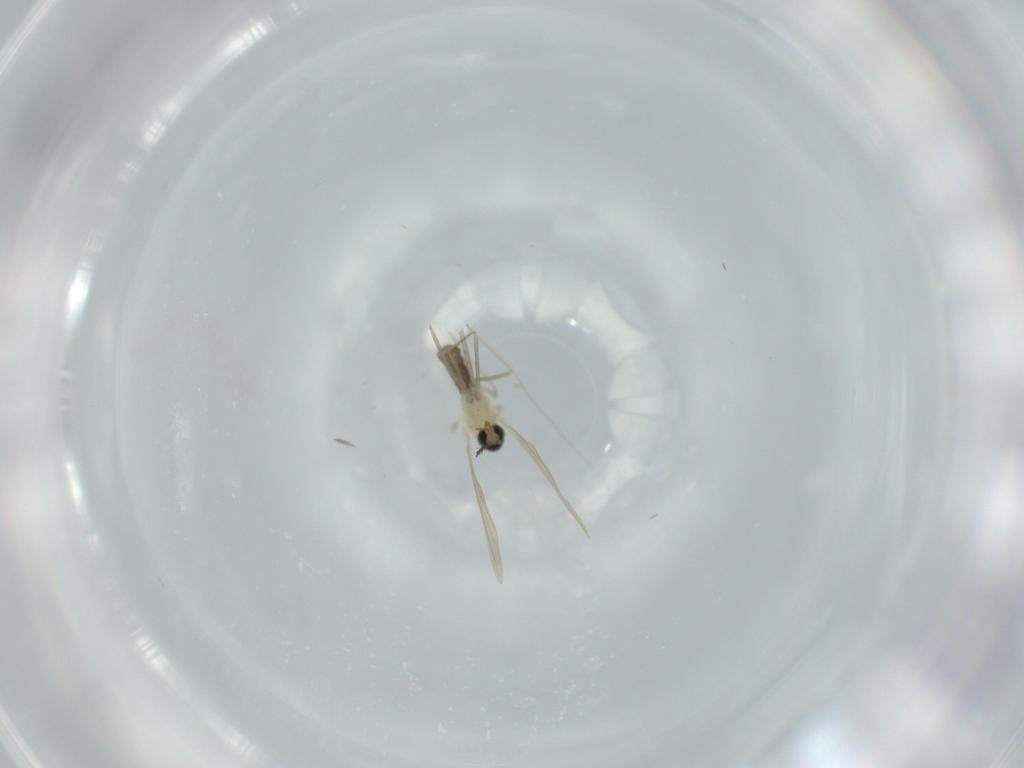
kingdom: Animalia
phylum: Arthropoda
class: Insecta
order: Diptera
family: Cecidomyiidae
